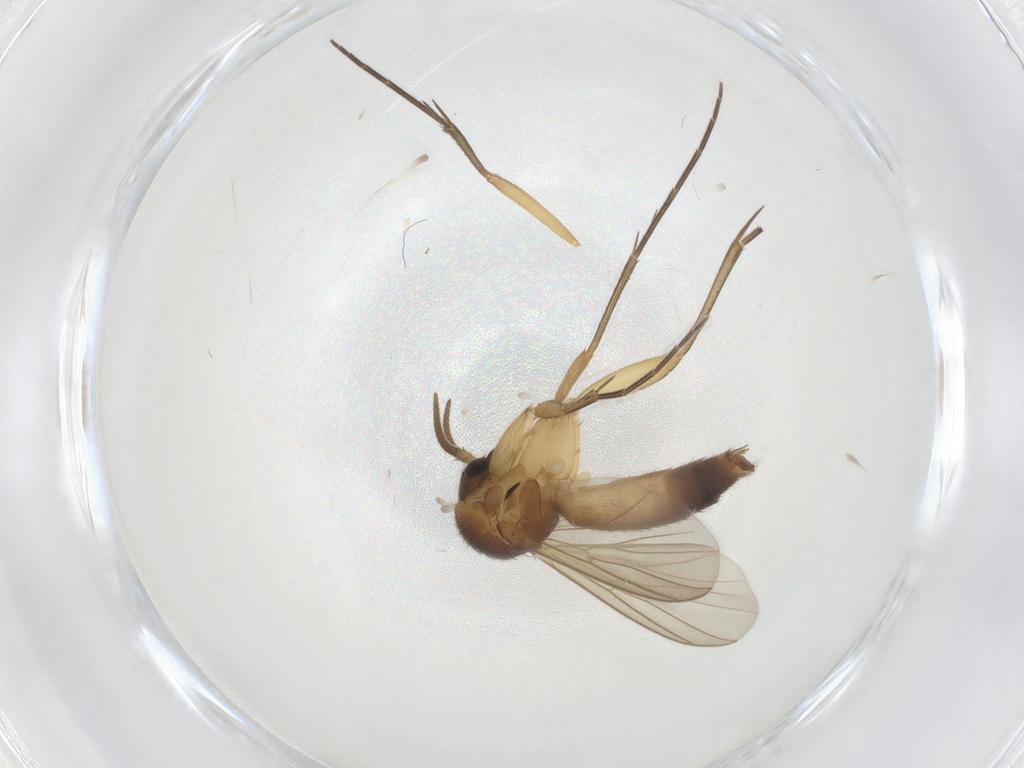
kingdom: Animalia
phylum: Arthropoda
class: Insecta
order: Diptera
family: Mycetophilidae
